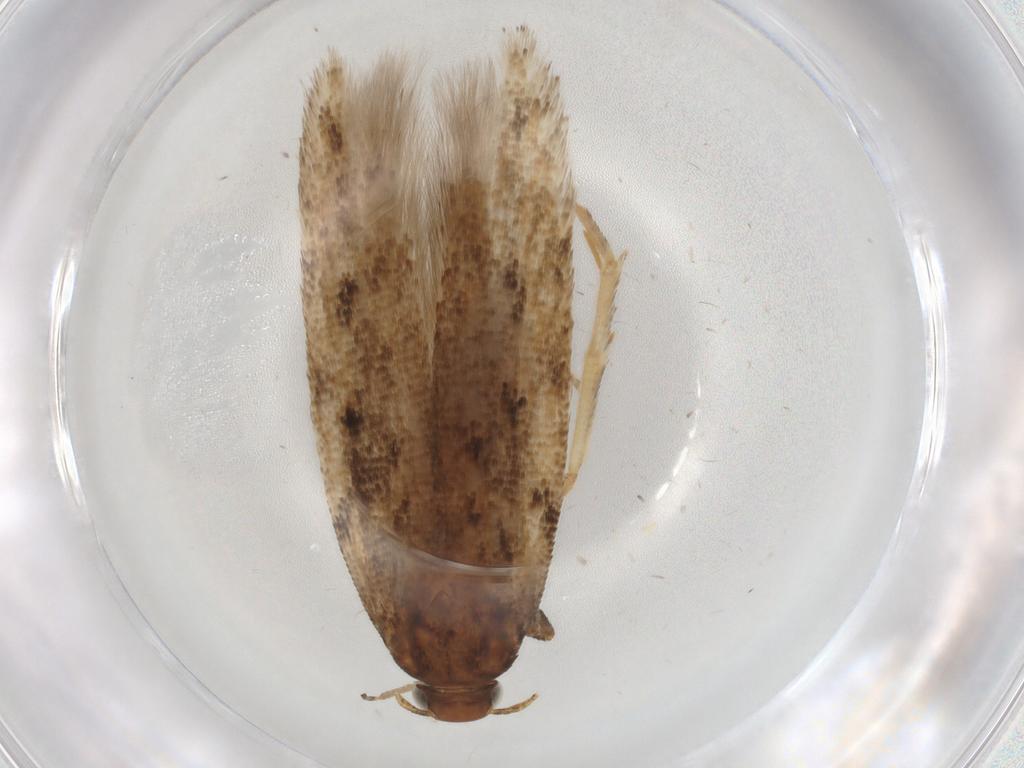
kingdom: Animalia
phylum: Arthropoda
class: Insecta
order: Lepidoptera
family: Gelechiidae
